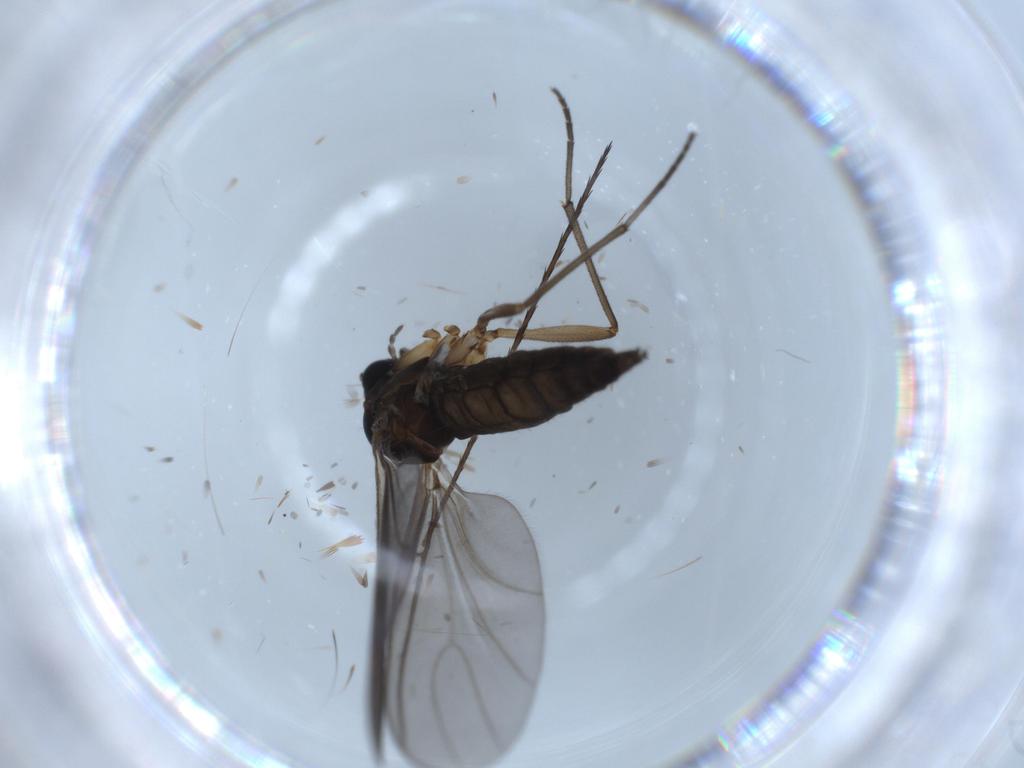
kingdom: Animalia
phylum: Arthropoda
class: Insecta
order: Diptera
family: Sciaridae
